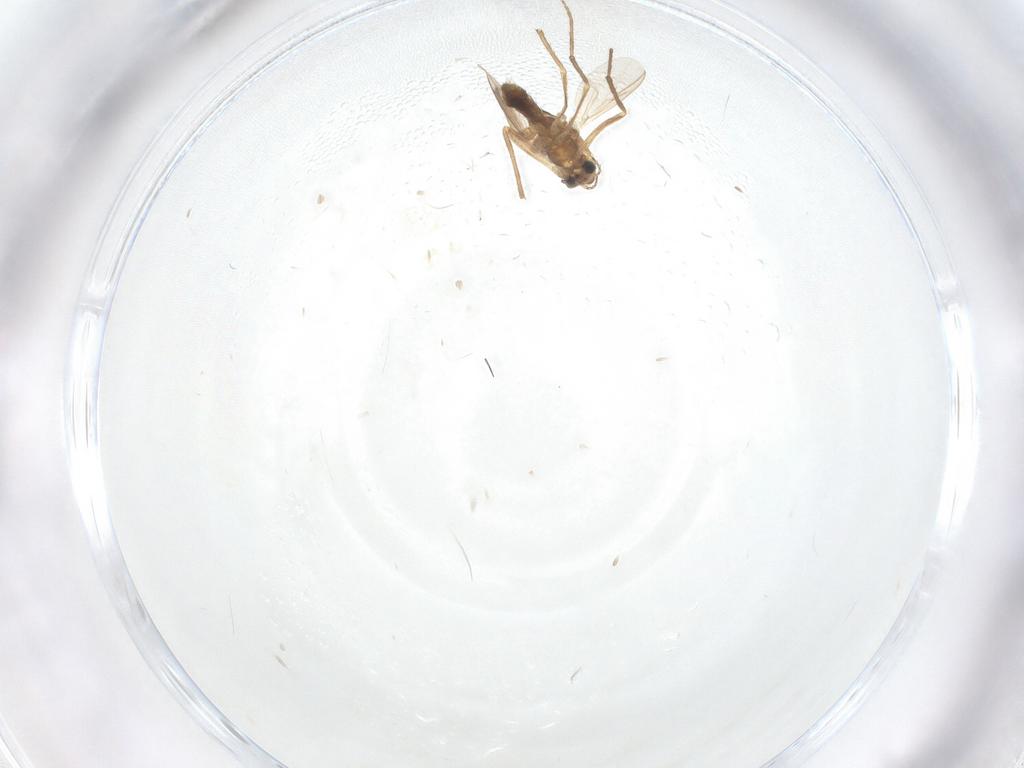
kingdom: Animalia
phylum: Arthropoda
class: Insecta
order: Diptera
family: Chironomidae
